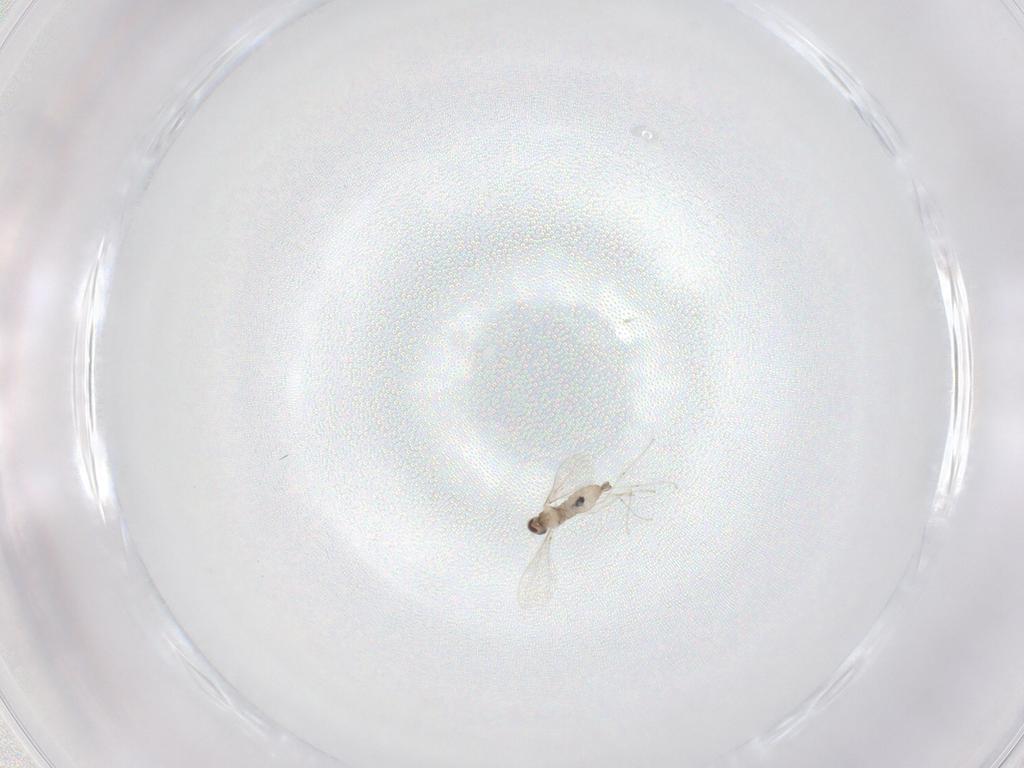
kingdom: Animalia
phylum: Arthropoda
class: Insecta
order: Diptera
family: Cecidomyiidae
